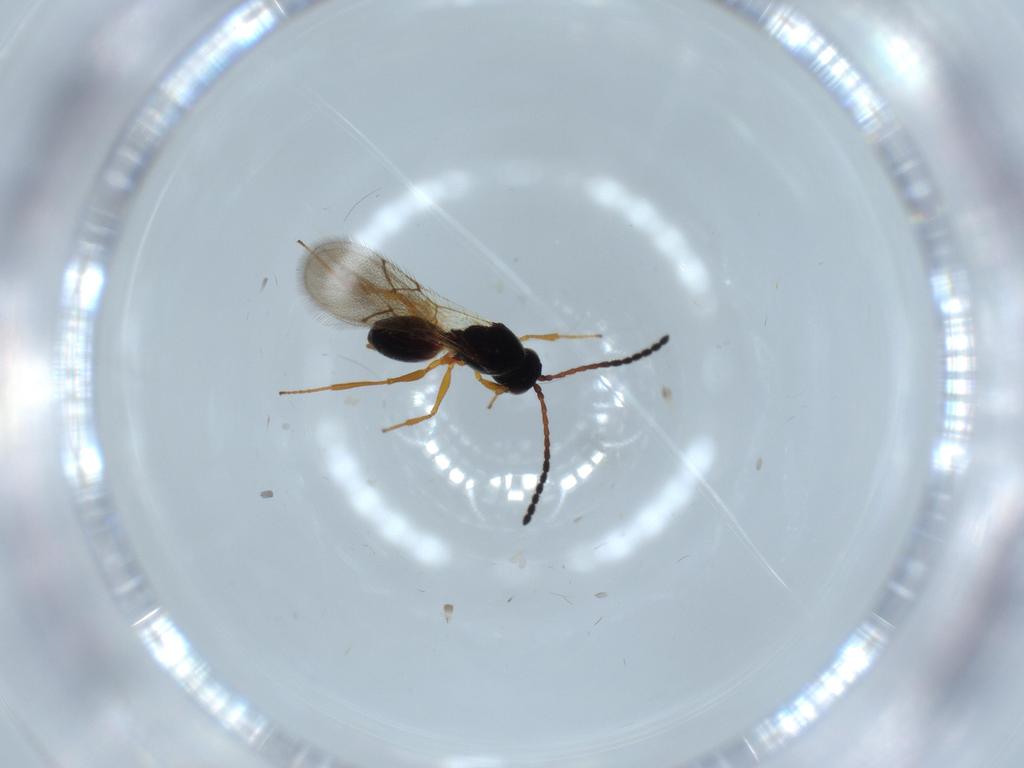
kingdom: Animalia
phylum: Arthropoda
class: Insecta
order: Hymenoptera
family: Figitidae
